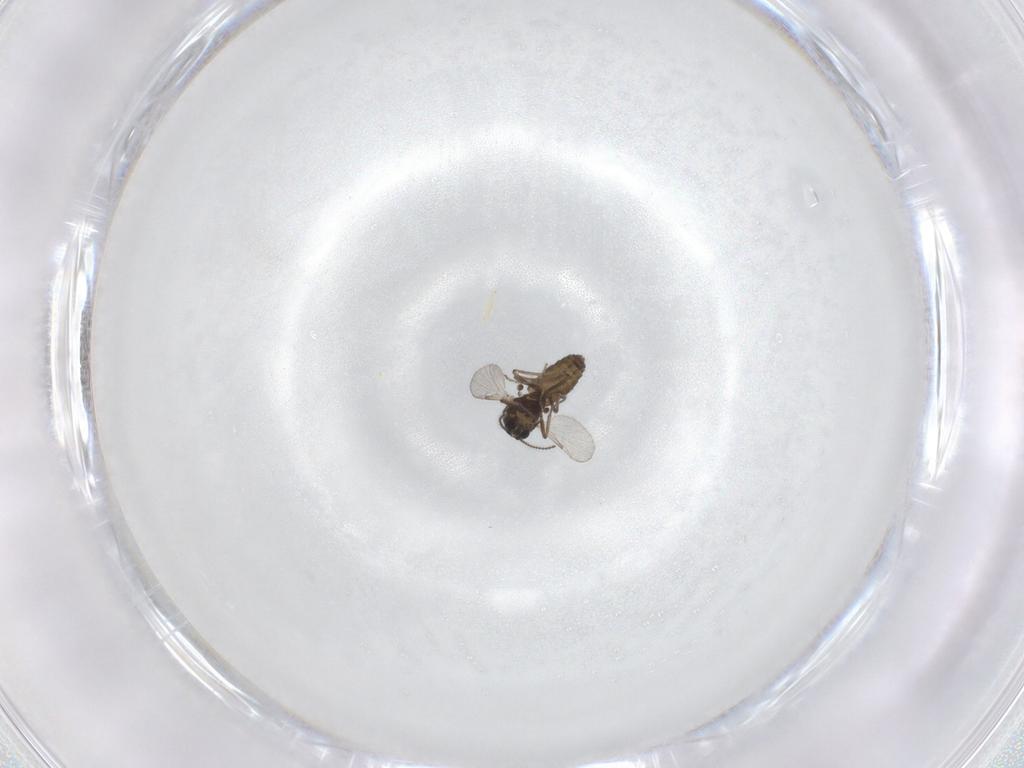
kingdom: Animalia
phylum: Arthropoda
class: Insecta
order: Diptera
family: Ceratopogonidae
